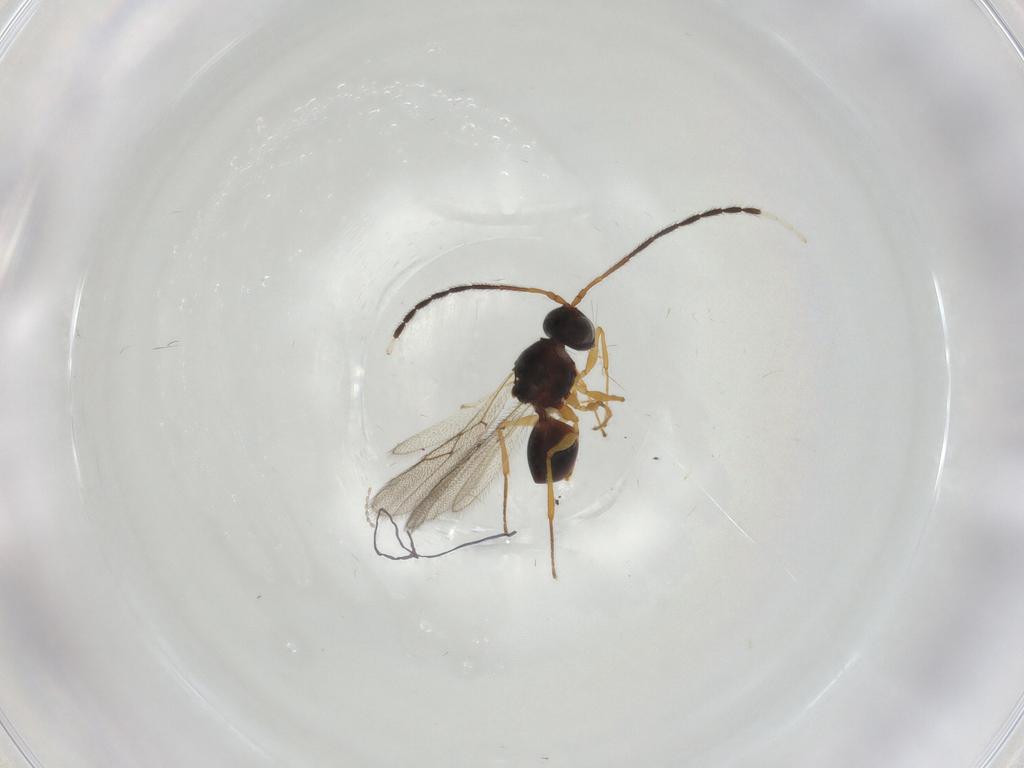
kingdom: Animalia
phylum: Arthropoda
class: Insecta
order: Hymenoptera
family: Figitidae
